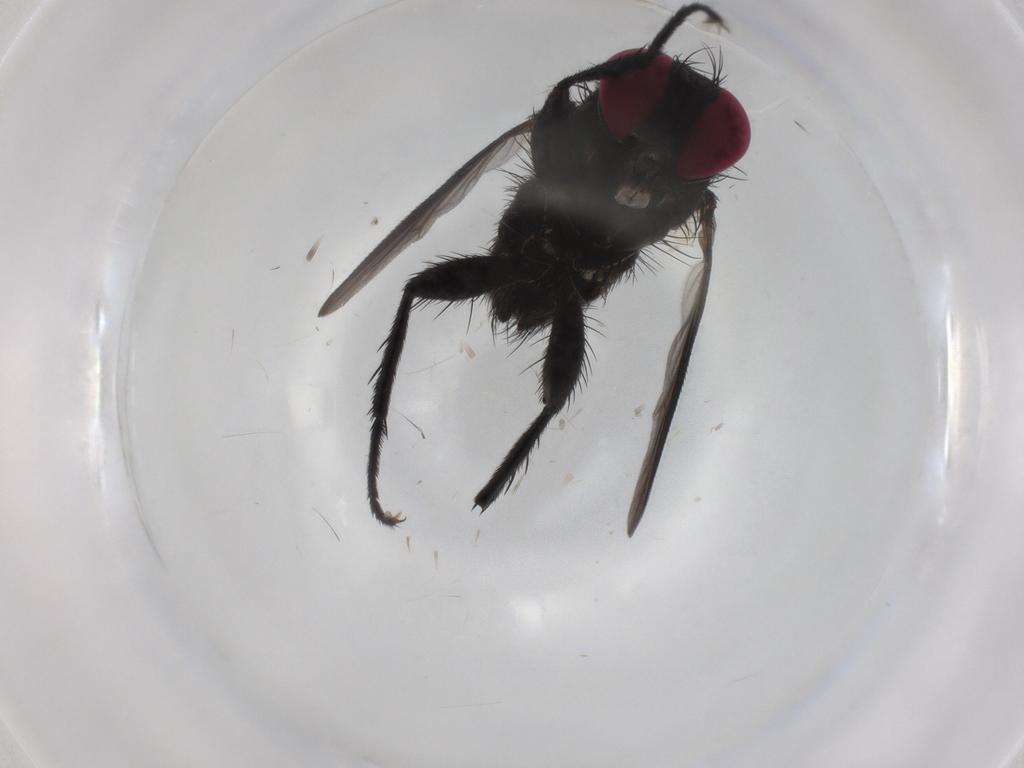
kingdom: Animalia
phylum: Arthropoda
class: Insecta
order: Diptera
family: Calliphoridae
